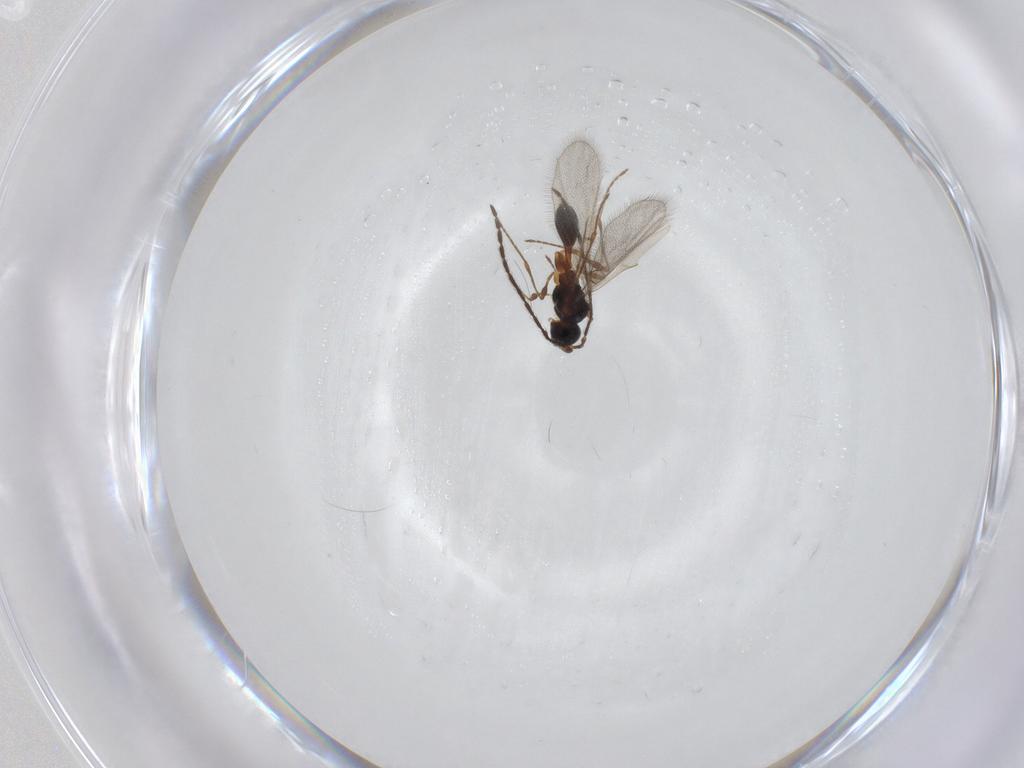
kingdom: Animalia
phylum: Arthropoda
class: Insecta
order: Hymenoptera
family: Diapriidae
